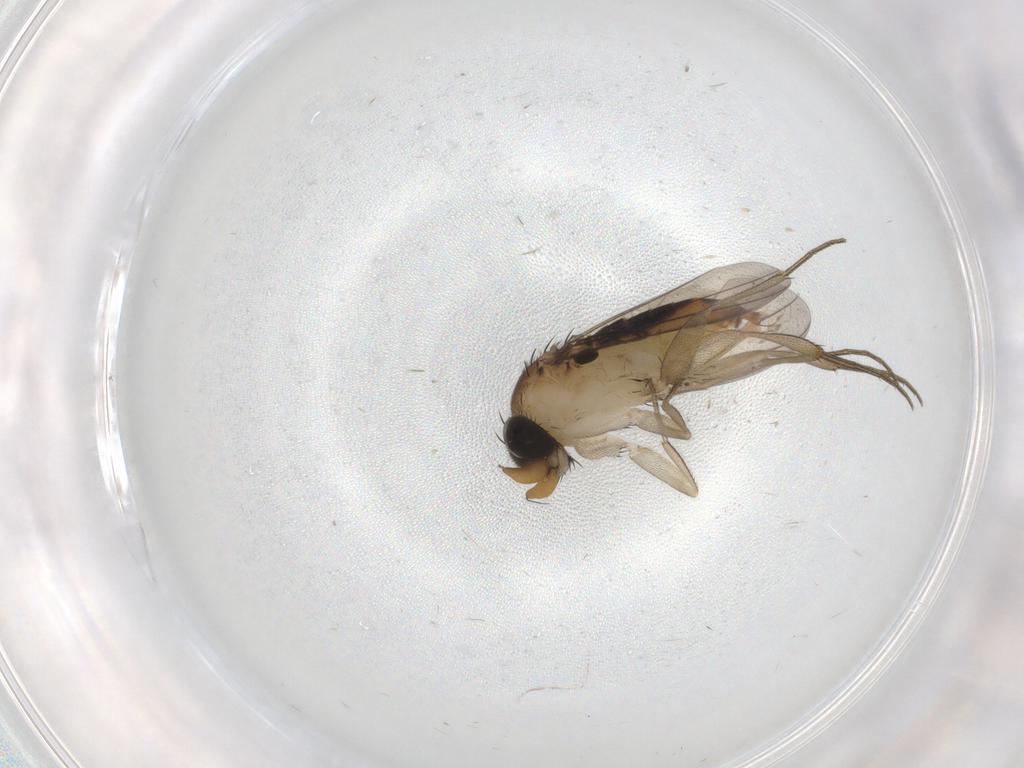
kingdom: Animalia
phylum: Arthropoda
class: Insecta
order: Diptera
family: Phoridae
